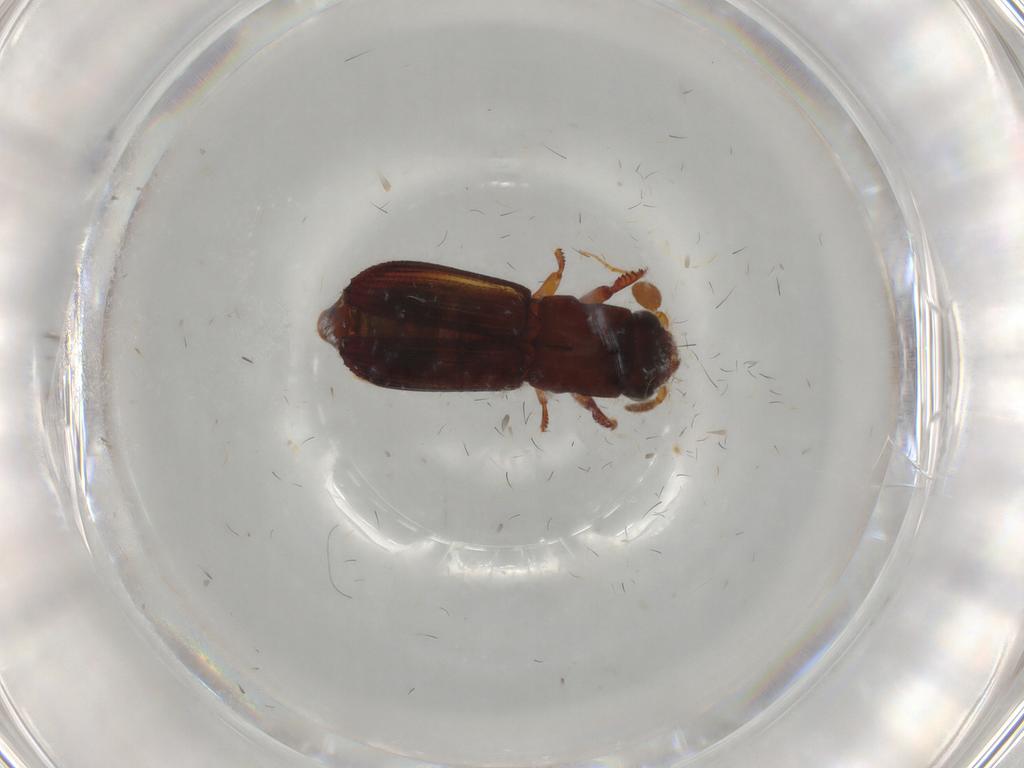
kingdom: Animalia
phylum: Arthropoda
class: Insecta
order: Coleoptera
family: Curculionidae
